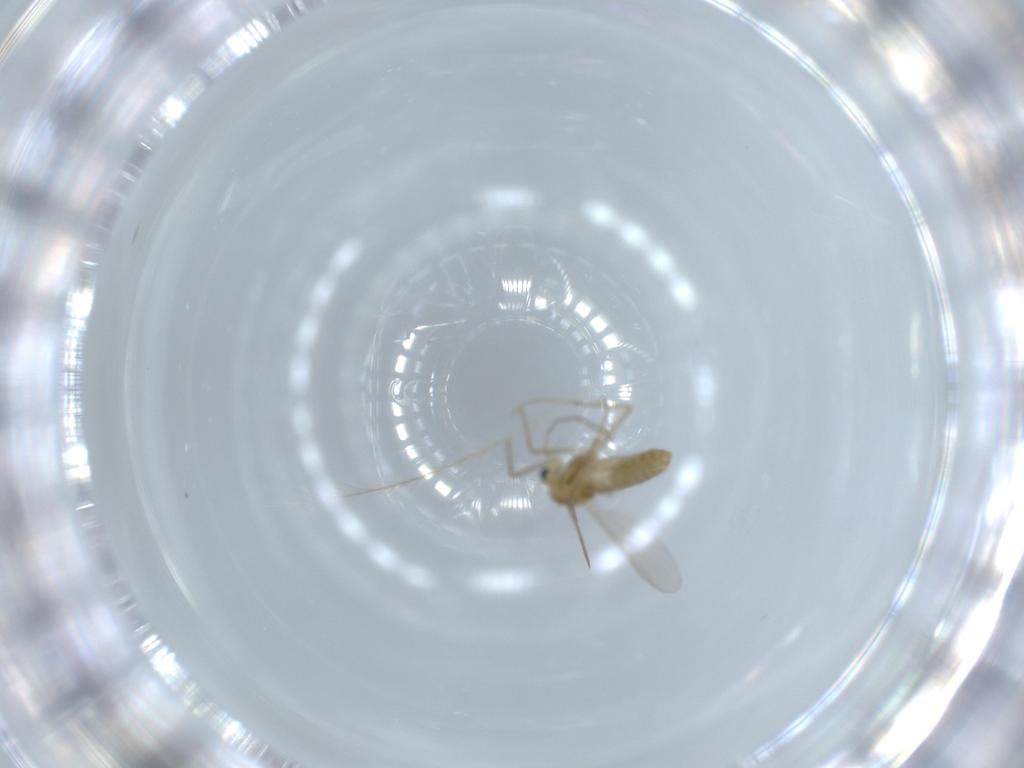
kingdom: Animalia
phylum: Arthropoda
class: Insecta
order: Diptera
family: Chironomidae
